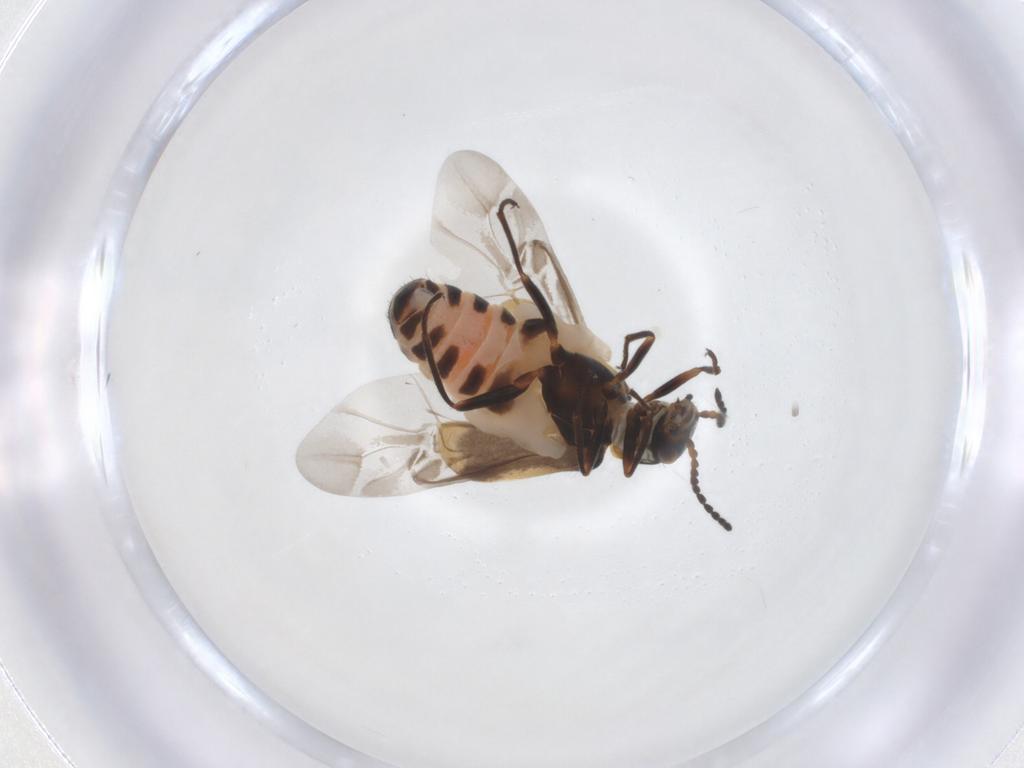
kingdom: Animalia
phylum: Arthropoda
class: Insecta
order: Coleoptera
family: Melyridae
